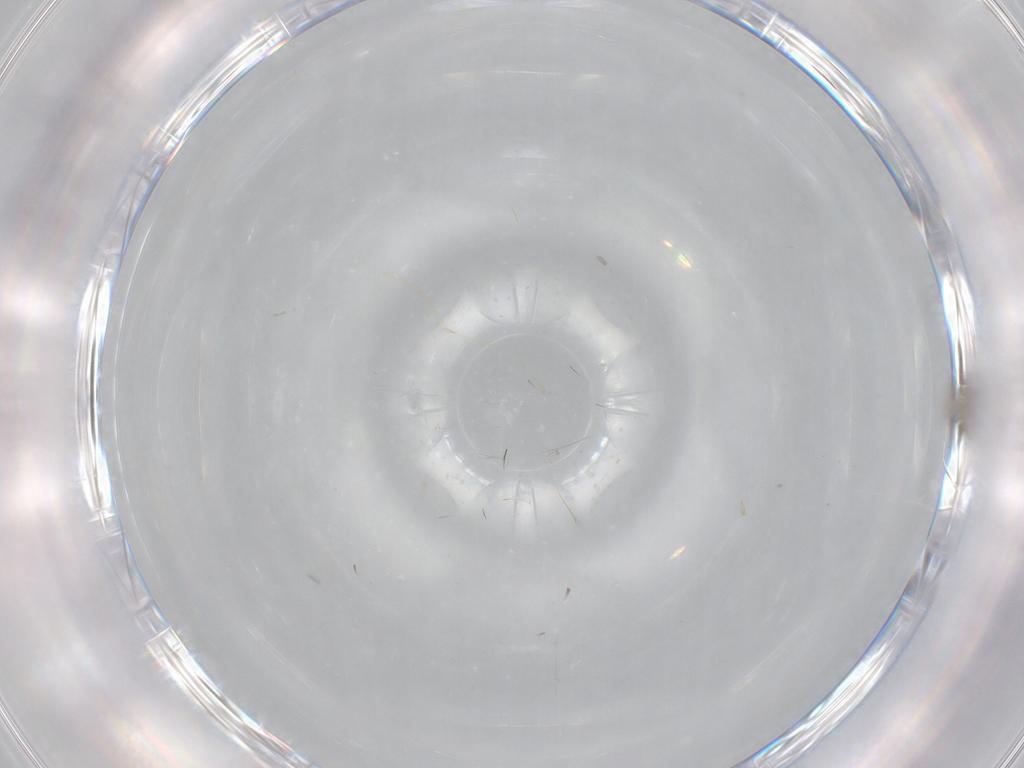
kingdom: Animalia
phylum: Arthropoda
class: Insecta
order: Diptera
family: Cecidomyiidae
